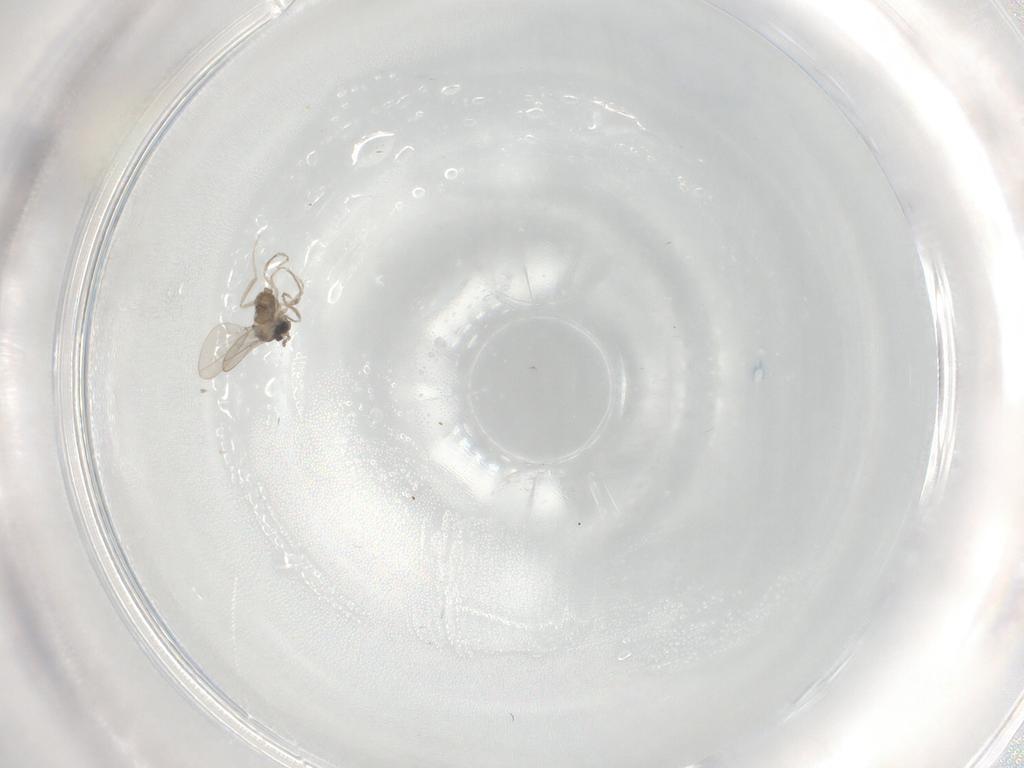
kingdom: Animalia
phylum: Arthropoda
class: Insecta
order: Diptera
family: Cecidomyiidae
